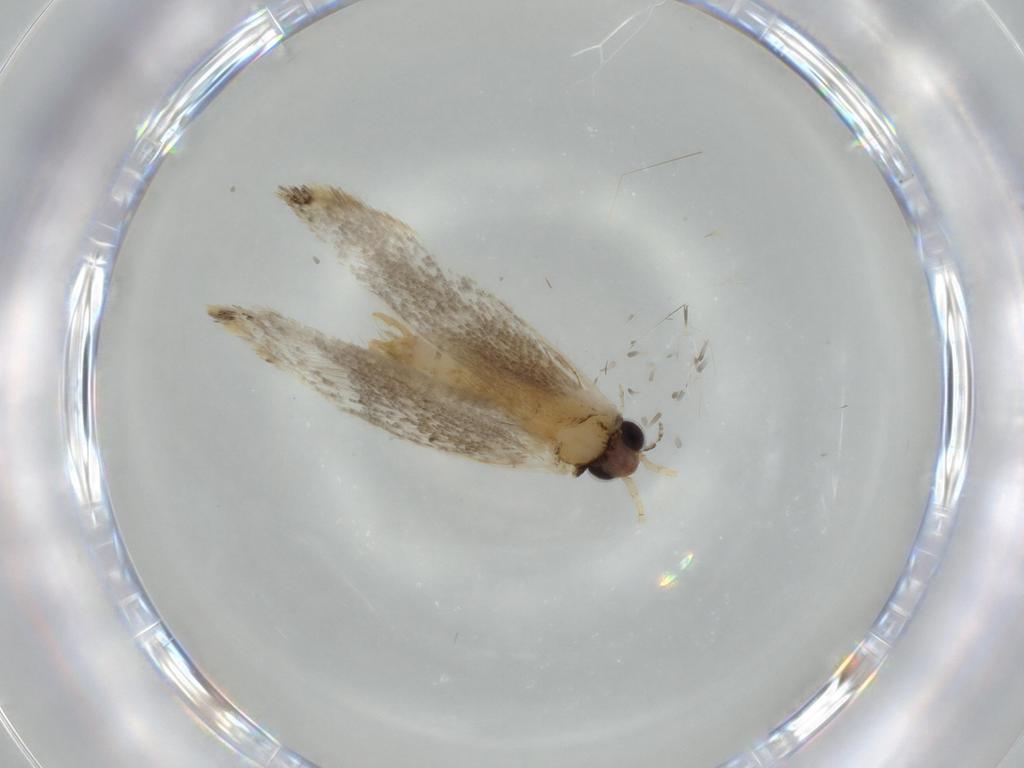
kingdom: Animalia
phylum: Arthropoda
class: Insecta
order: Lepidoptera
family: Tineidae
